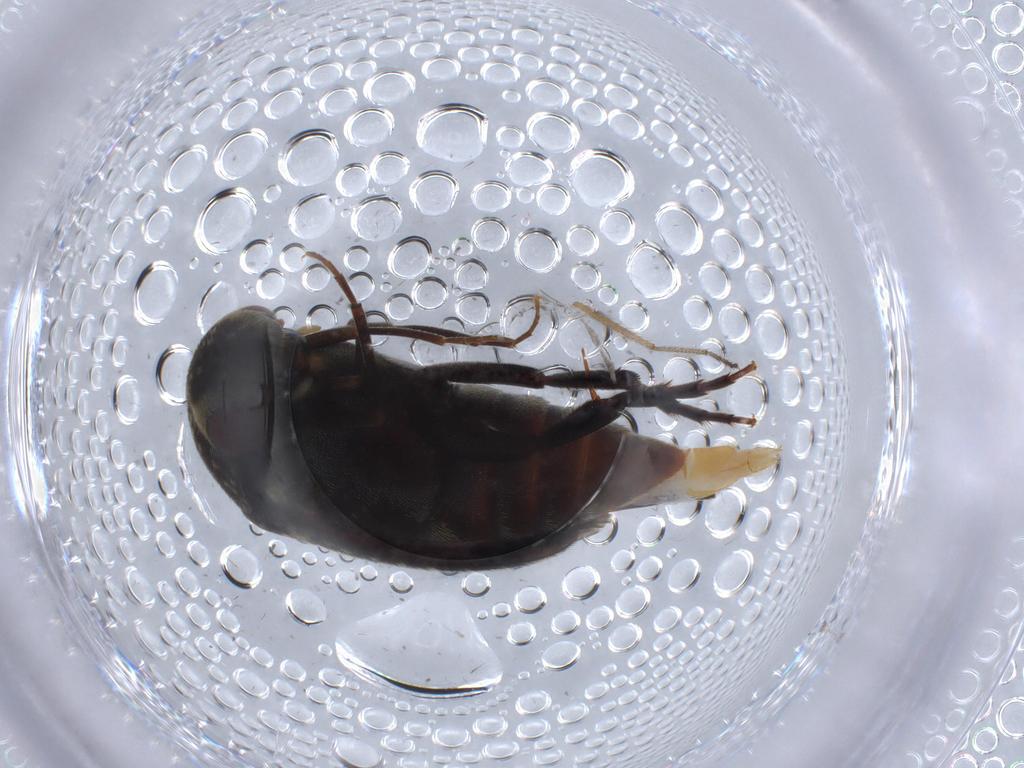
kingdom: Animalia
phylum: Arthropoda
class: Insecta
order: Coleoptera
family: Mordellidae
